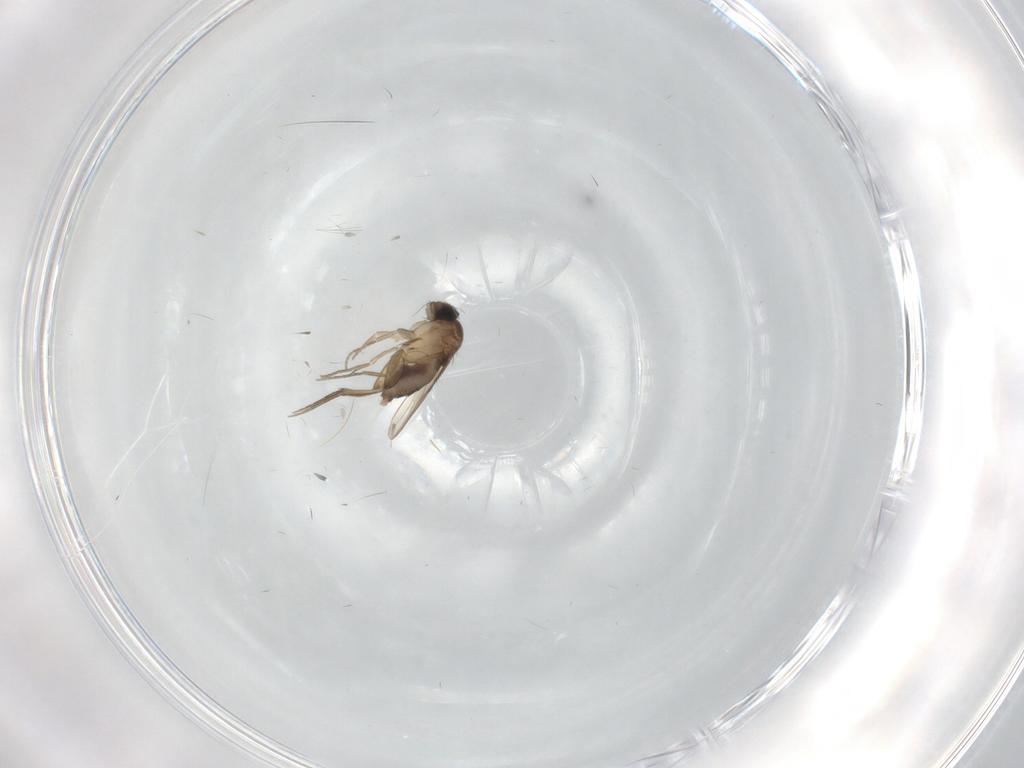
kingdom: Animalia
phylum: Arthropoda
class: Insecta
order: Diptera
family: Phoridae
